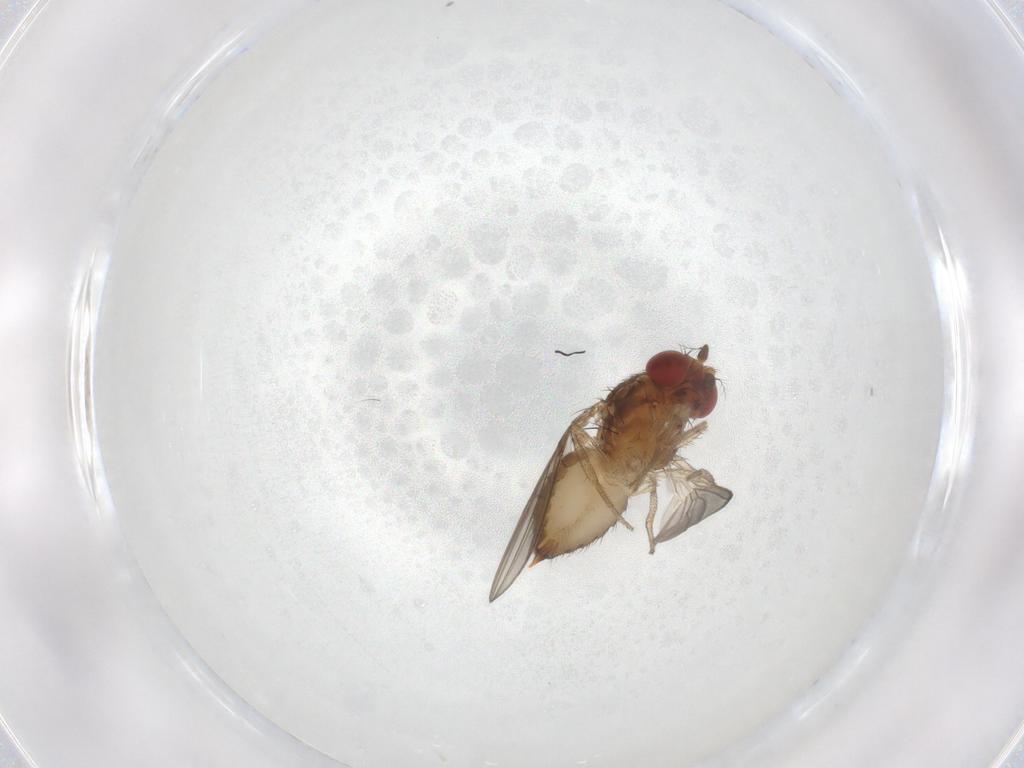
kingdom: Animalia
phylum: Arthropoda
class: Insecta
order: Diptera
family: Drosophilidae
